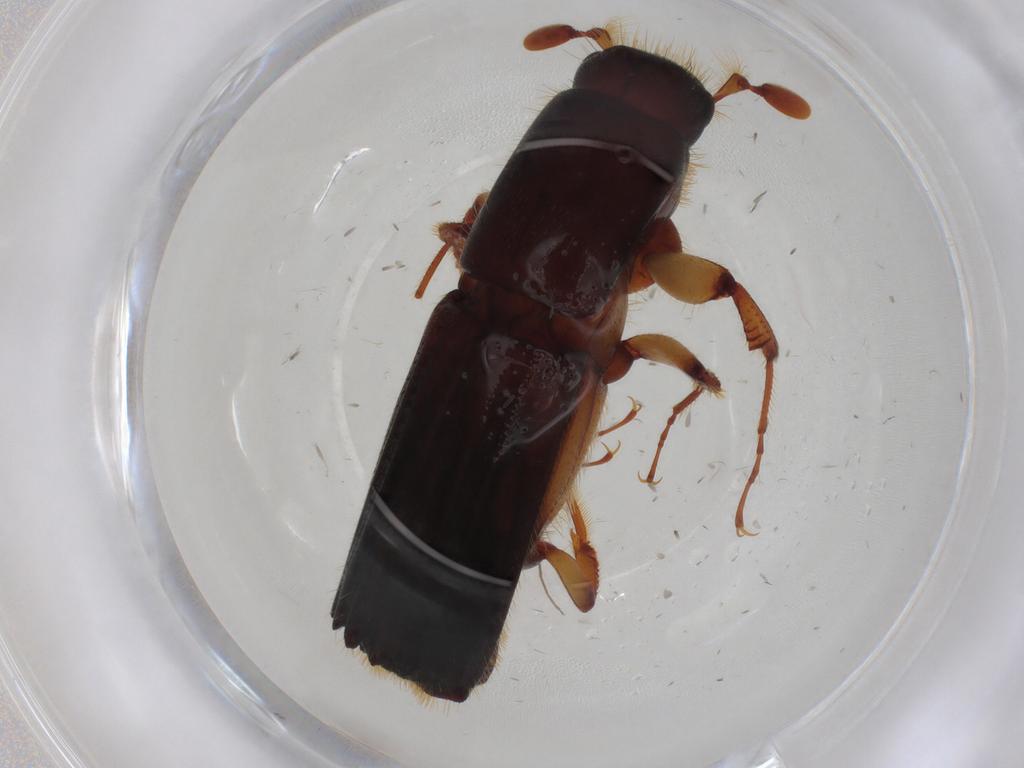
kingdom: Animalia
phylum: Arthropoda
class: Insecta
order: Coleoptera
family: Curculionidae
